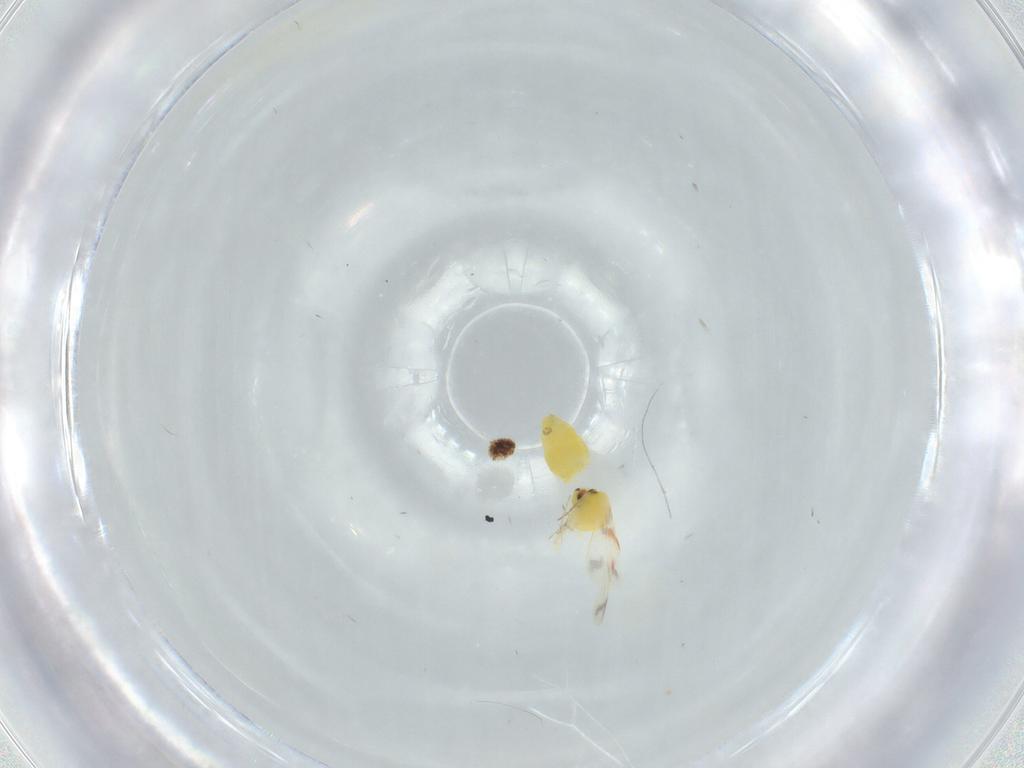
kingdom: Animalia
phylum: Arthropoda
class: Insecta
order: Hemiptera
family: Aleyrodidae
